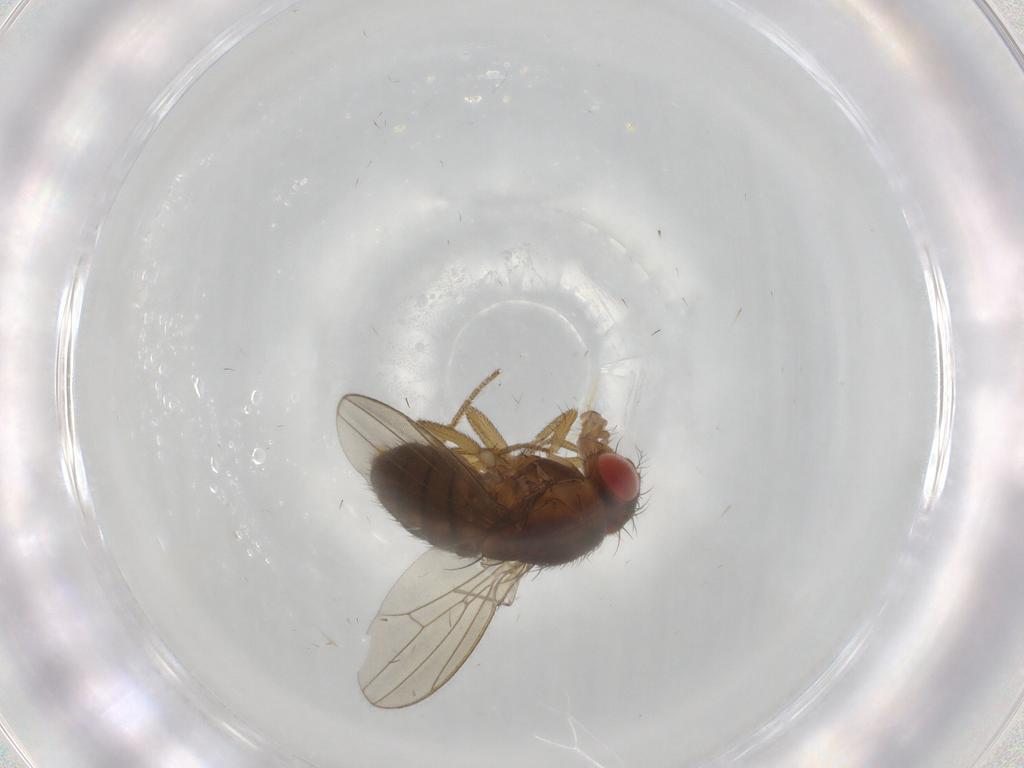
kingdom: Animalia
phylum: Arthropoda
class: Insecta
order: Diptera
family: Drosophilidae
